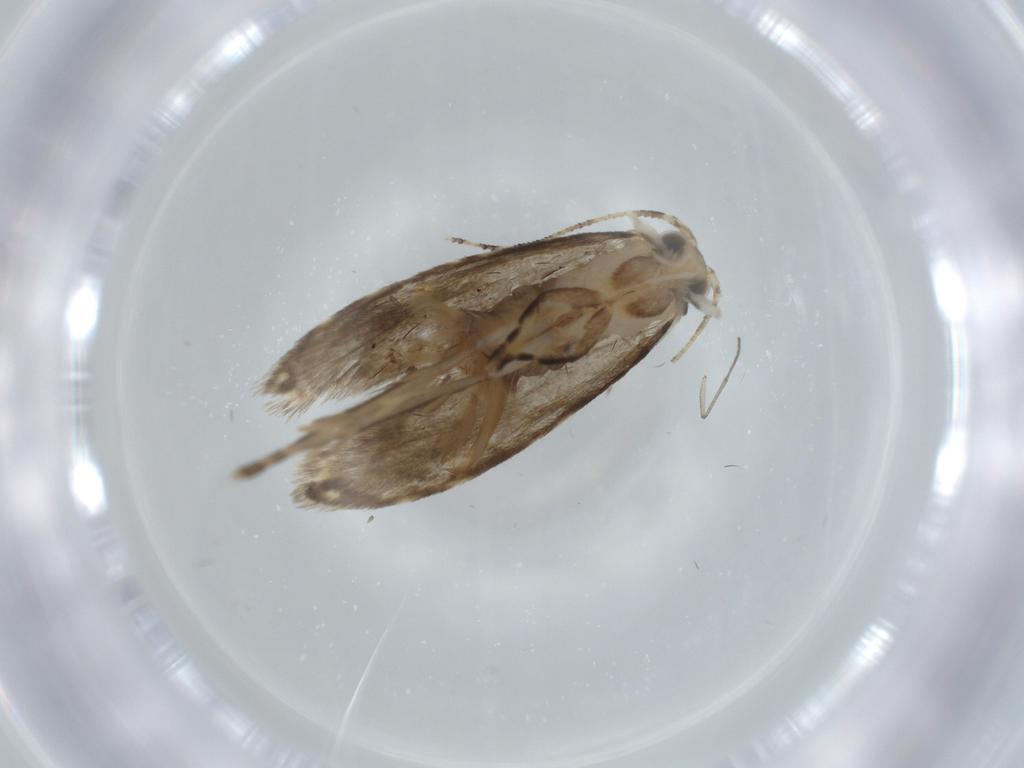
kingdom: Animalia
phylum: Arthropoda
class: Insecta
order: Lepidoptera
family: Tineidae
